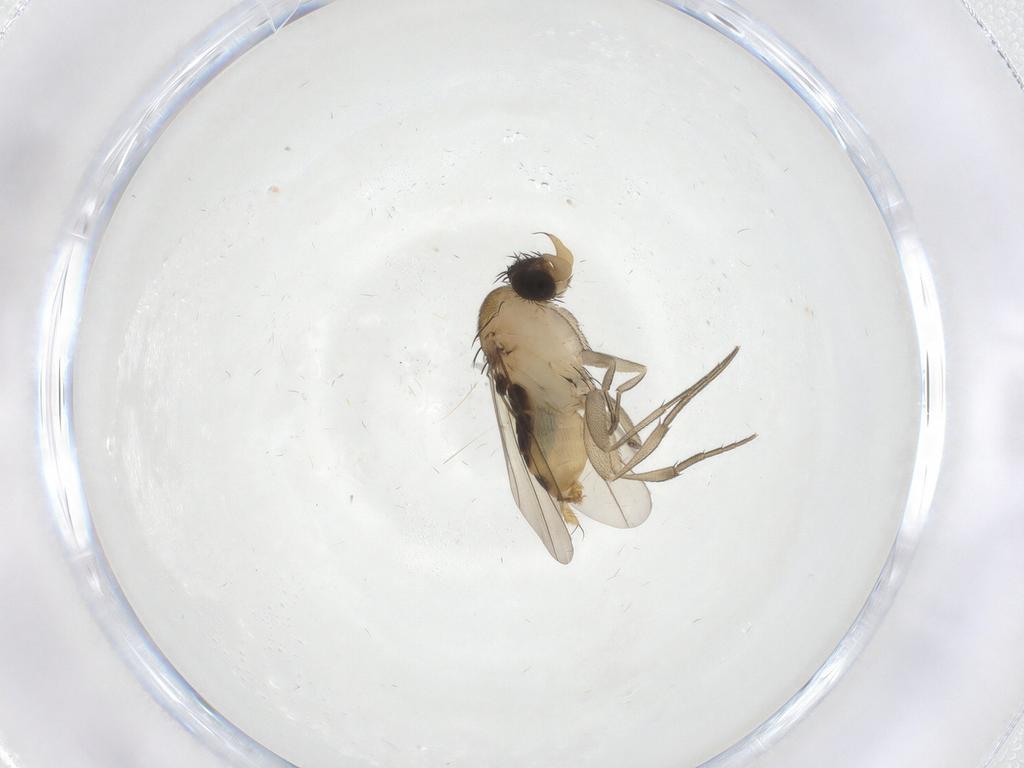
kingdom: Animalia
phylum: Arthropoda
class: Insecta
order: Diptera
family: Phoridae
